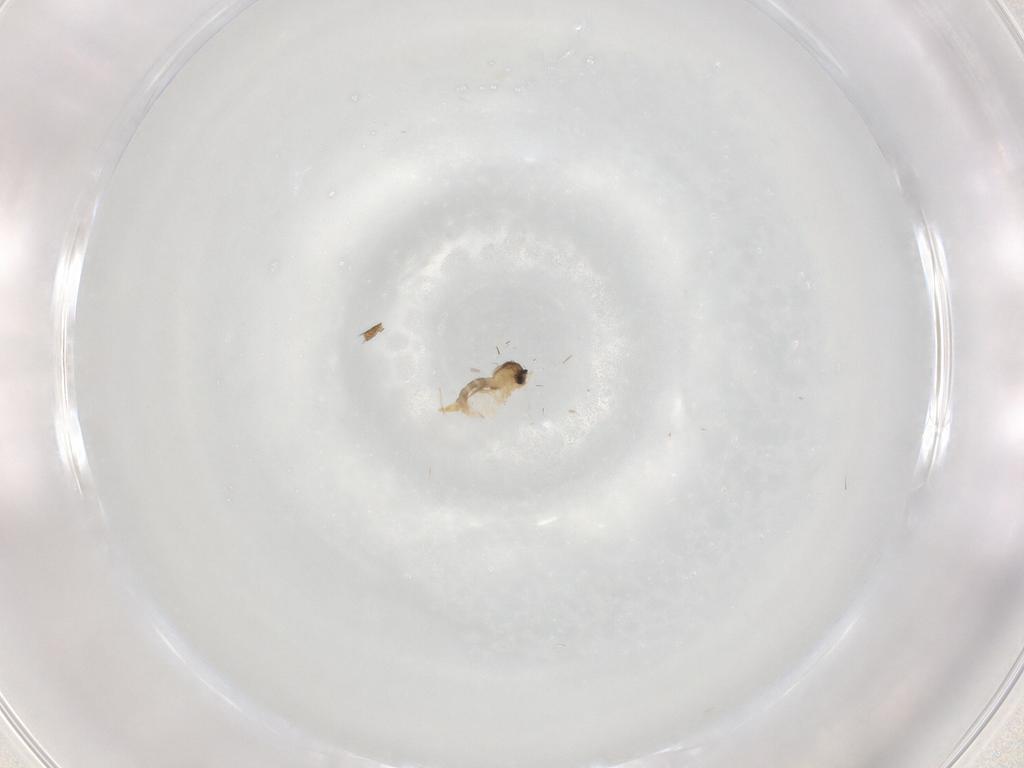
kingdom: Animalia
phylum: Arthropoda
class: Insecta
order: Diptera
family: Cecidomyiidae
